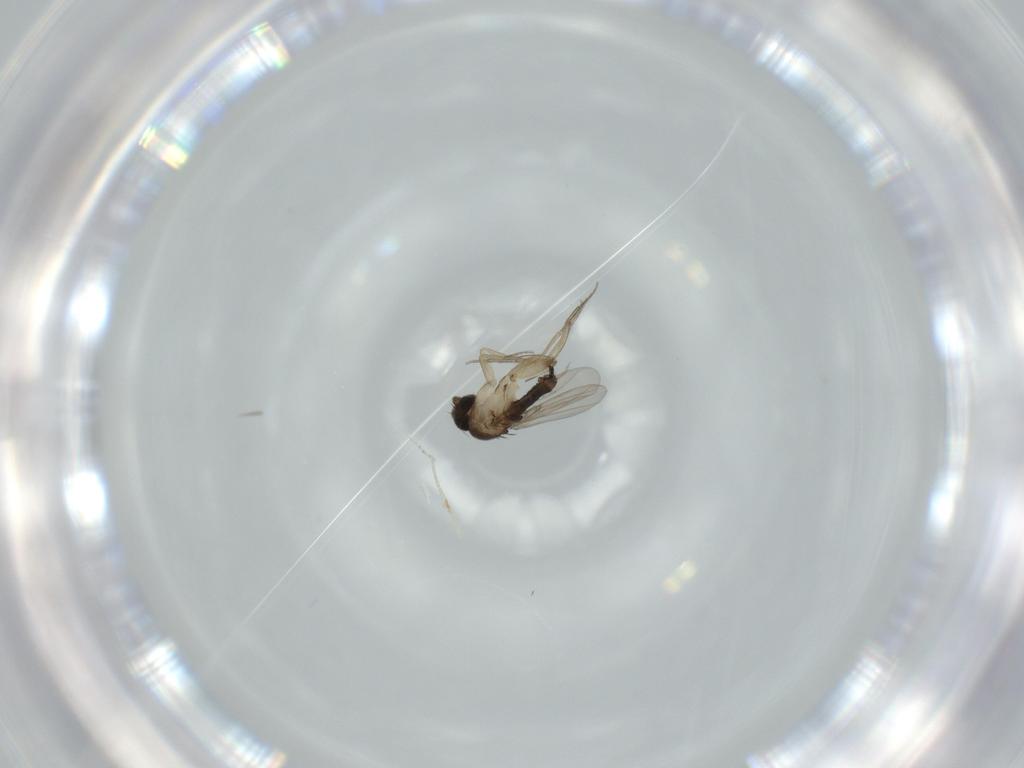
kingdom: Animalia
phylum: Arthropoda
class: Insecta
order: Diptera
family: Phoridae
